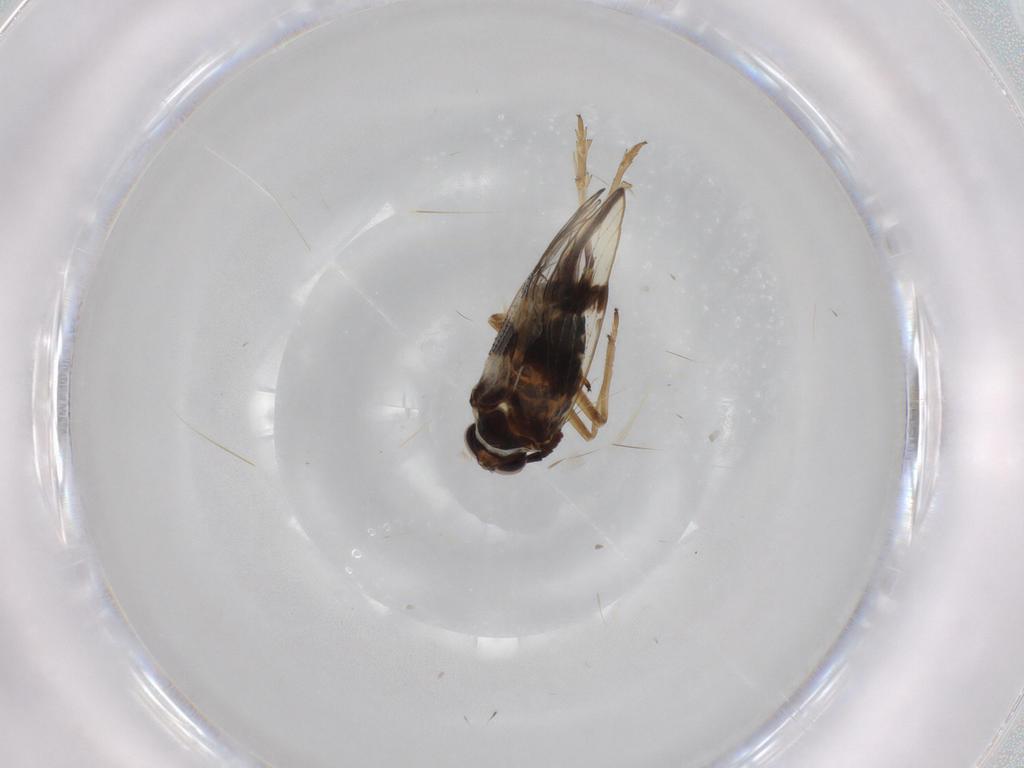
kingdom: Animalia
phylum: Arthropoda
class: Insecta
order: Hemiptera
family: Delphacidae
